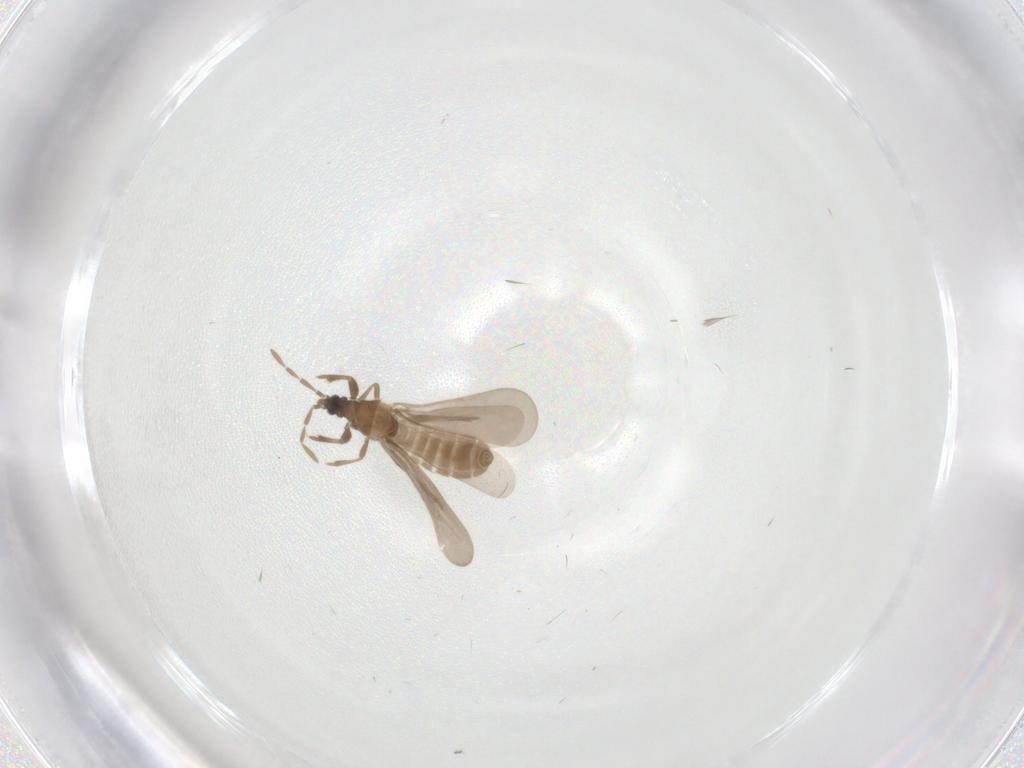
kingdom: Animalia
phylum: Arthropoda
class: Insecta
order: Hemiptera
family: Enicocephalidae
